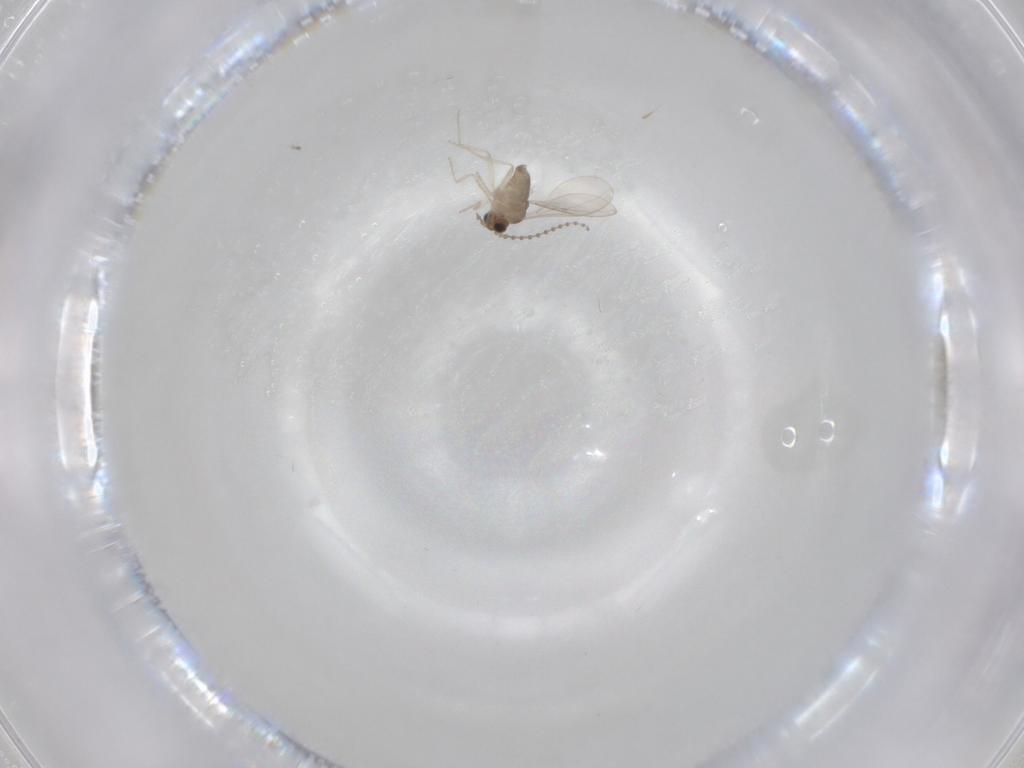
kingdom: Animalia
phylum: Arthropoda
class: Insecta
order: Diptera
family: Cecidomyiidae
